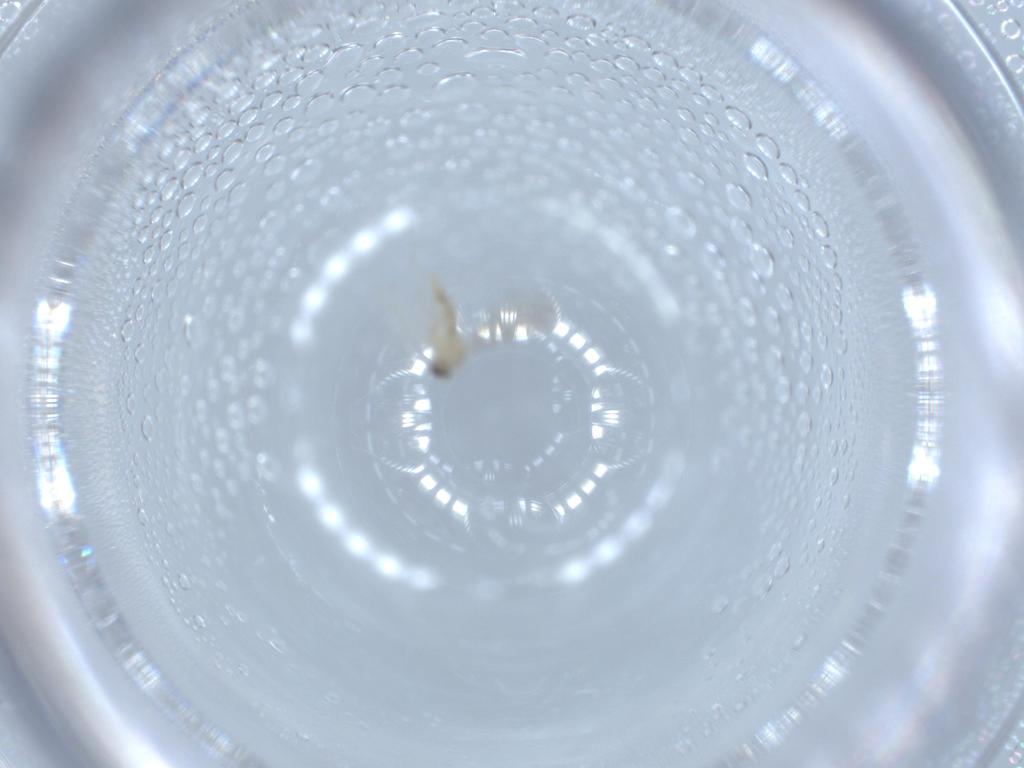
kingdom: Animalia
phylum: Arthropoda
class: Insecta
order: Diptera
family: Cecidomyiidae
